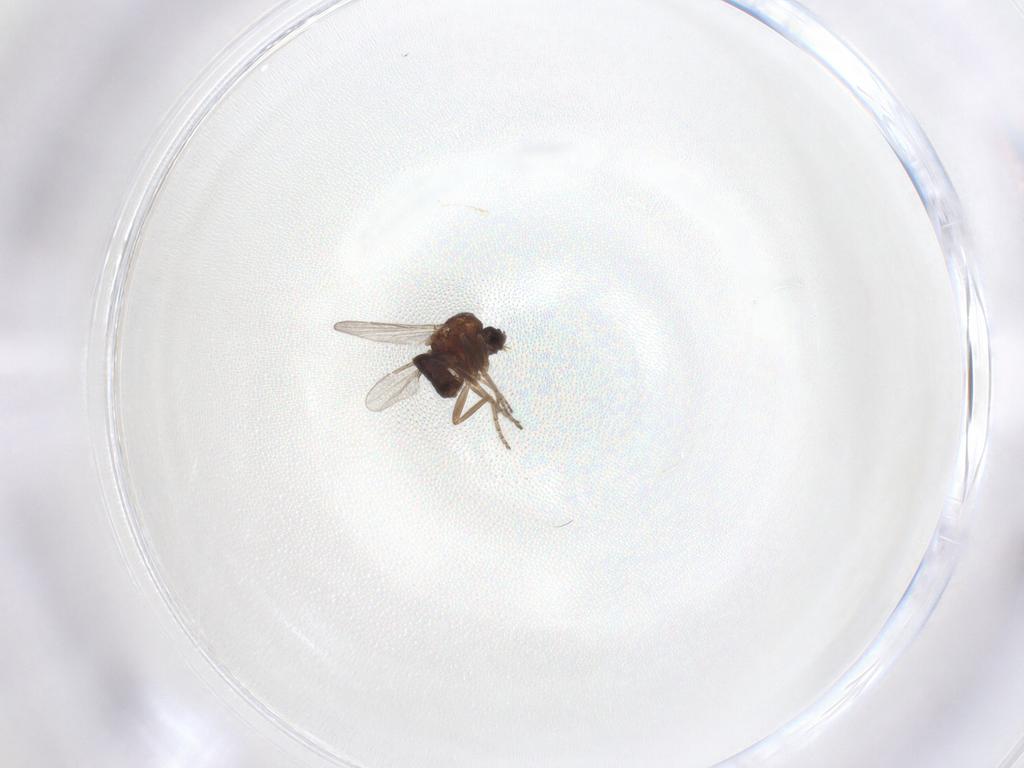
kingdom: Animalia
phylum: Arthropoda
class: Insecta
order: Diptera
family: Ceratopogonidae
